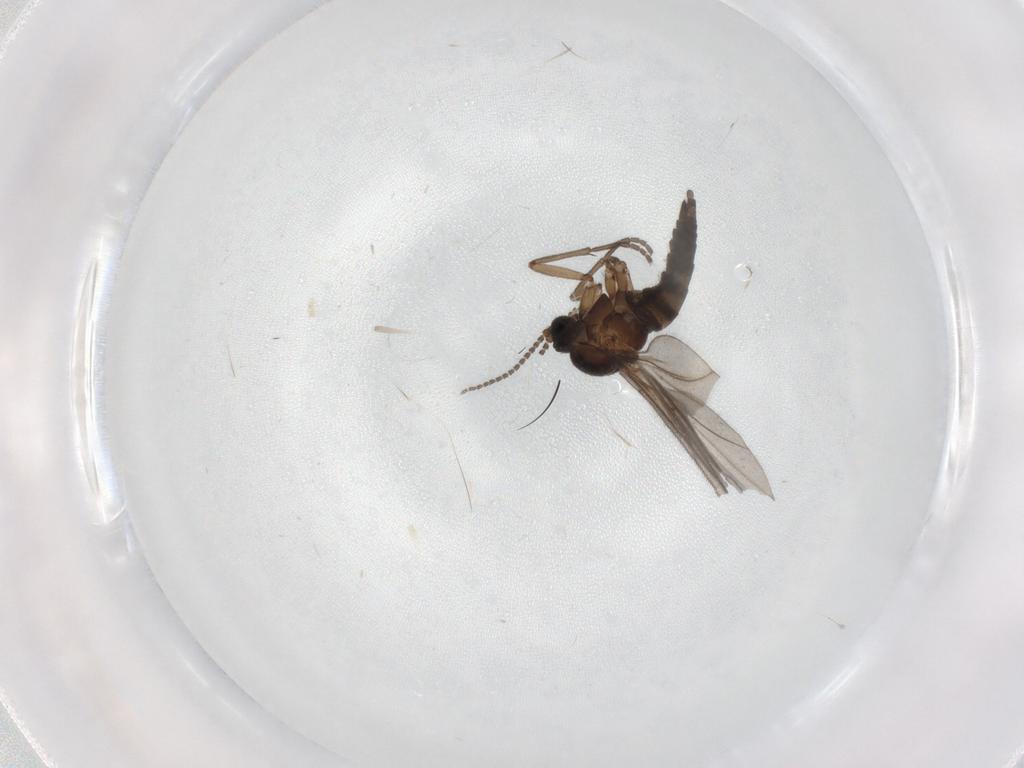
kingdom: Animalia
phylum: Arthropoda
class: Insecta
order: Diptera
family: Sciaridae
